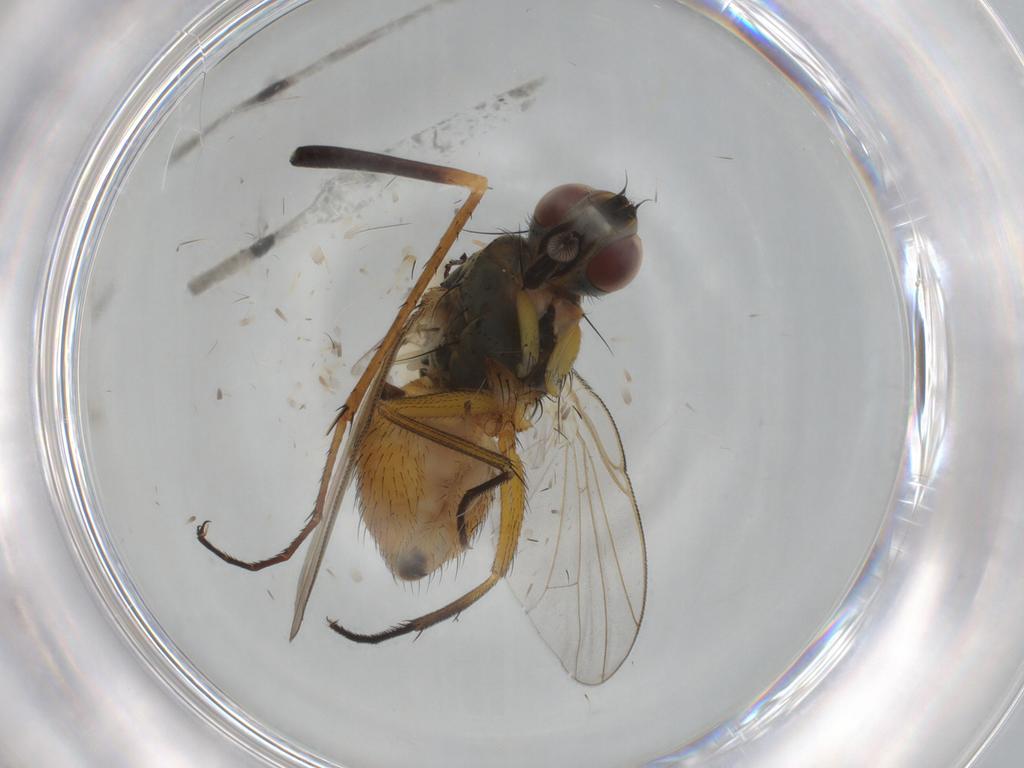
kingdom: Animalia
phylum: Arthropoda
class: Insecta
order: Diptera
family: Muscidae
